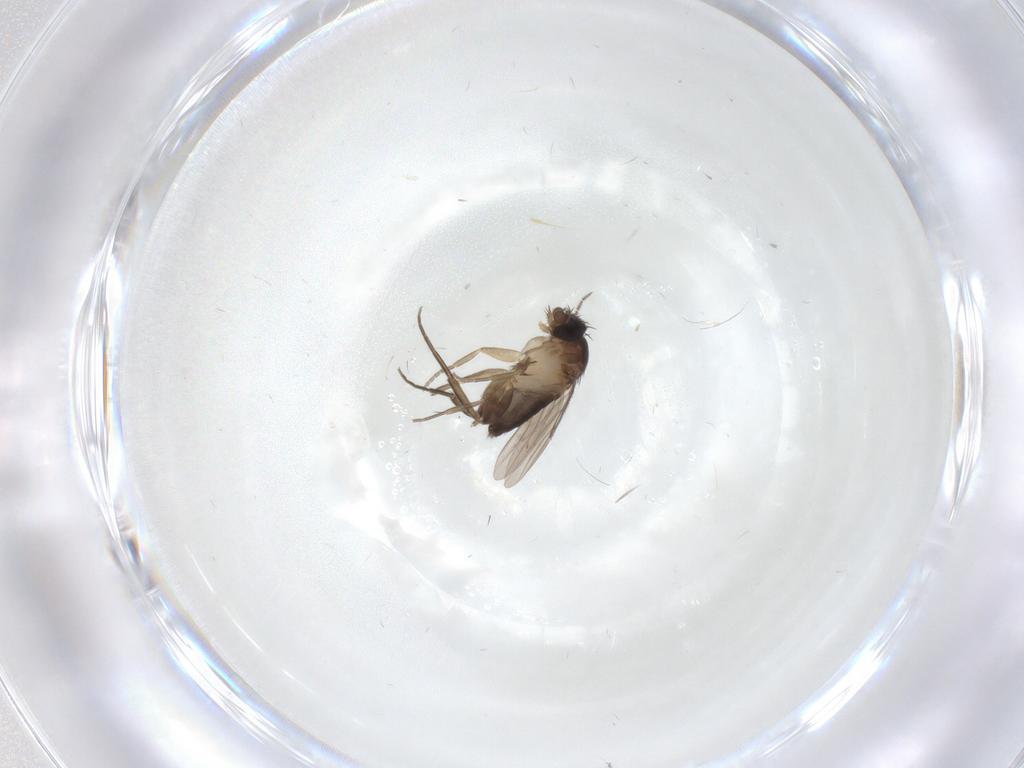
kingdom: Animalia
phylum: Arthropoda
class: Insecta
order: Diptera
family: Phoridae
